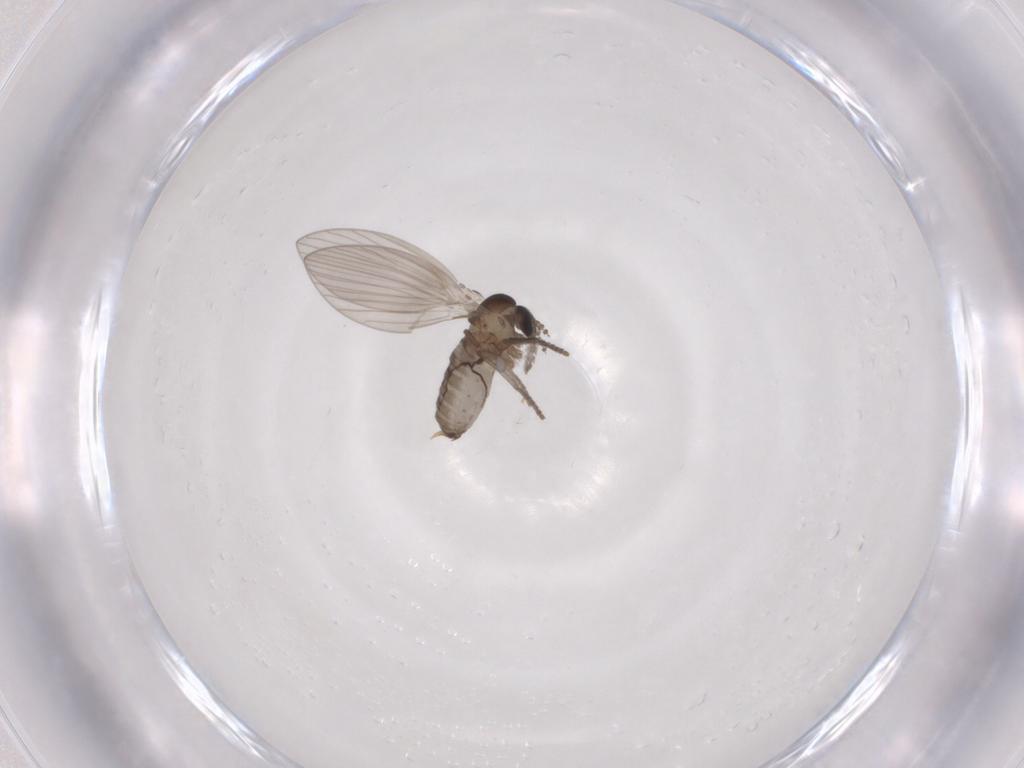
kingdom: Animalia
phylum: Arthropoda
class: Insecta
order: Diptera
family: Psychodidae
